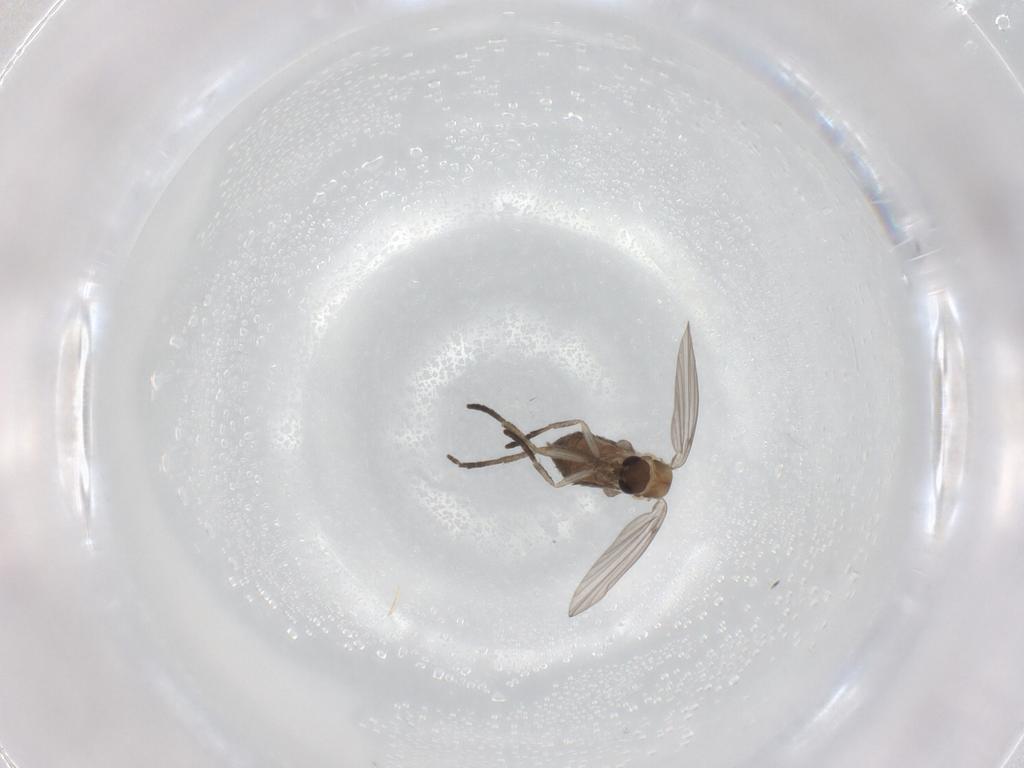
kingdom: Animalia
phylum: Arthropoda
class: Insecta
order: Diptera
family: Psychodidae
